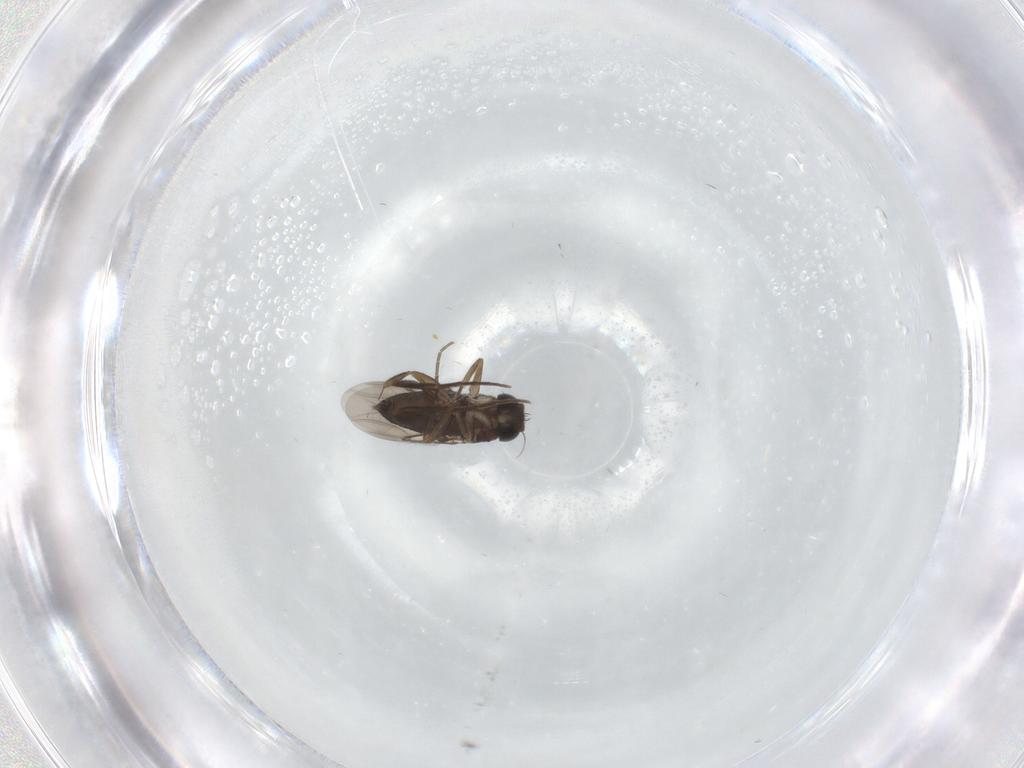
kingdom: Animalia
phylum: Arthropoda
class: Insecta
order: Diptera
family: Phoridae
